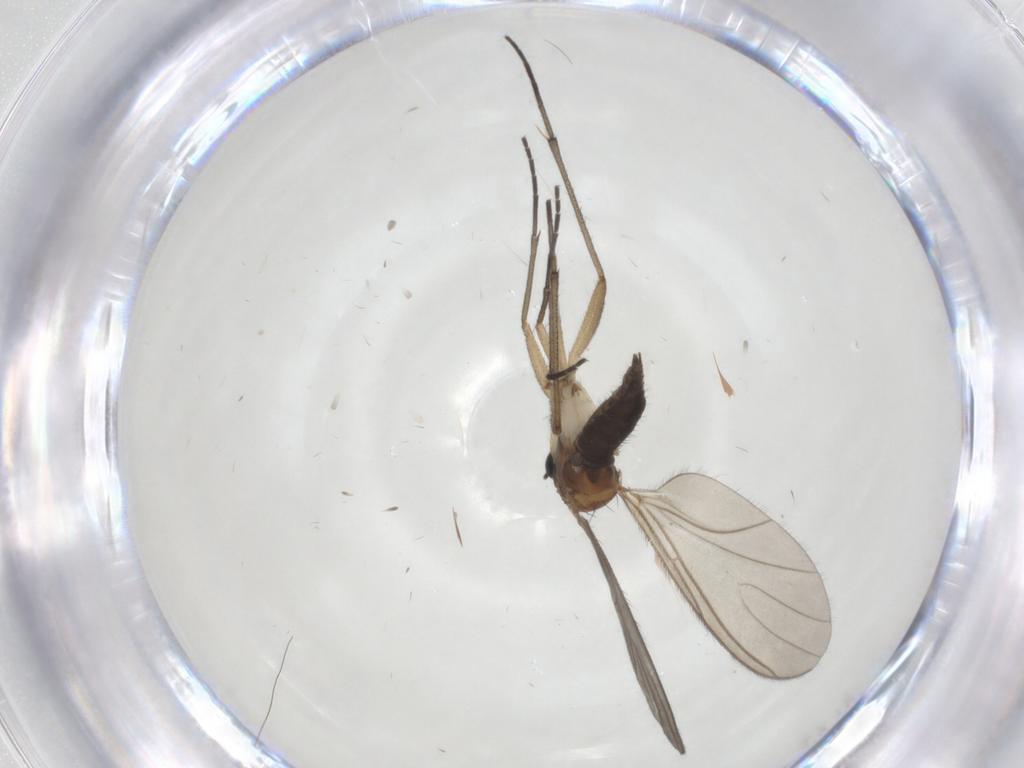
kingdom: Animalia
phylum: Arthropoda
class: Insecta
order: Diptera
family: Sciaridae
